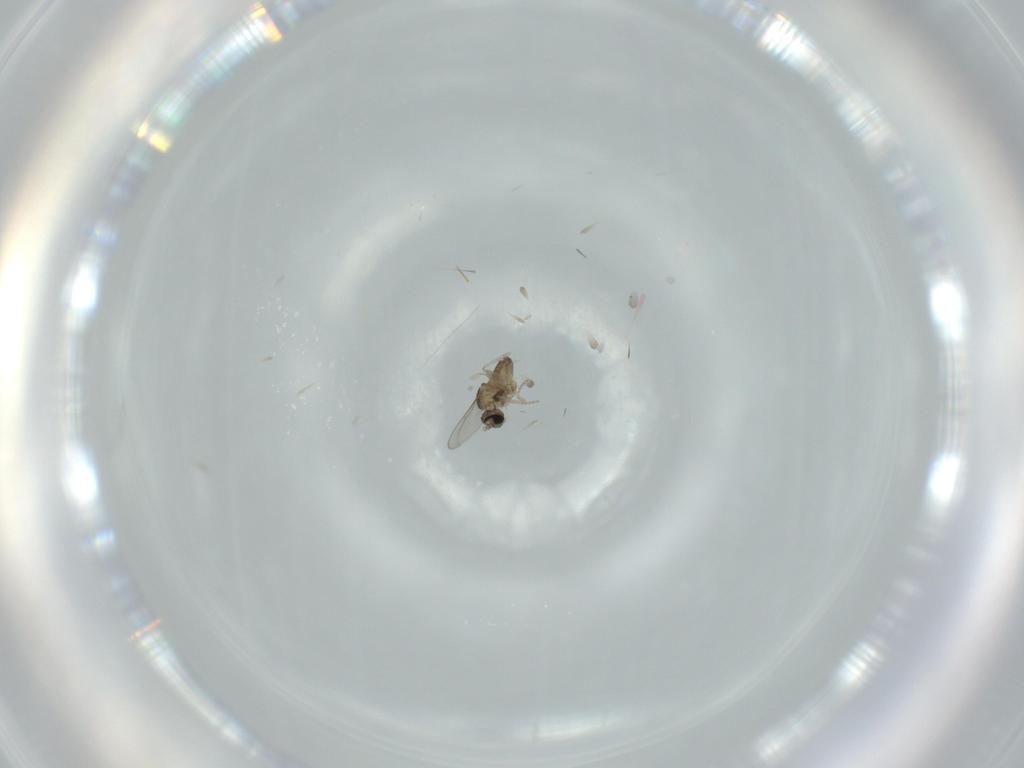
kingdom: Animalia
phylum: Arthropoda
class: Insecta
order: Diptera
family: Cecidomyiidae
